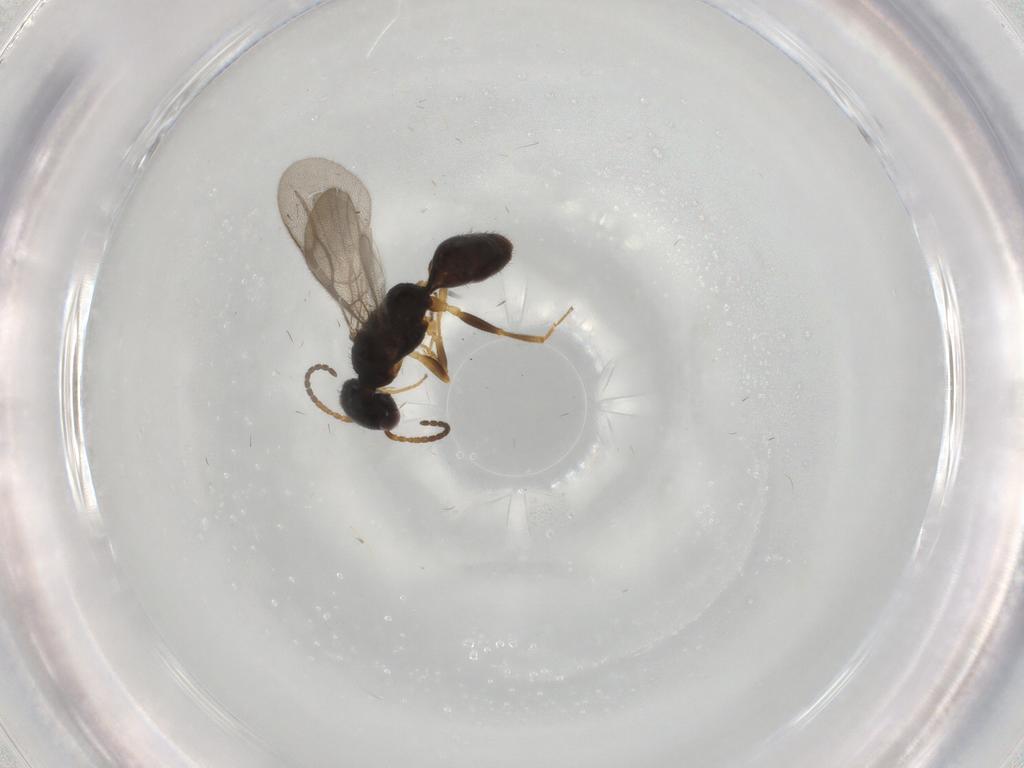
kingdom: Animalia
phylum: Arthropoda
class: Insecta
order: Hymenoptera
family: Bethylidae
